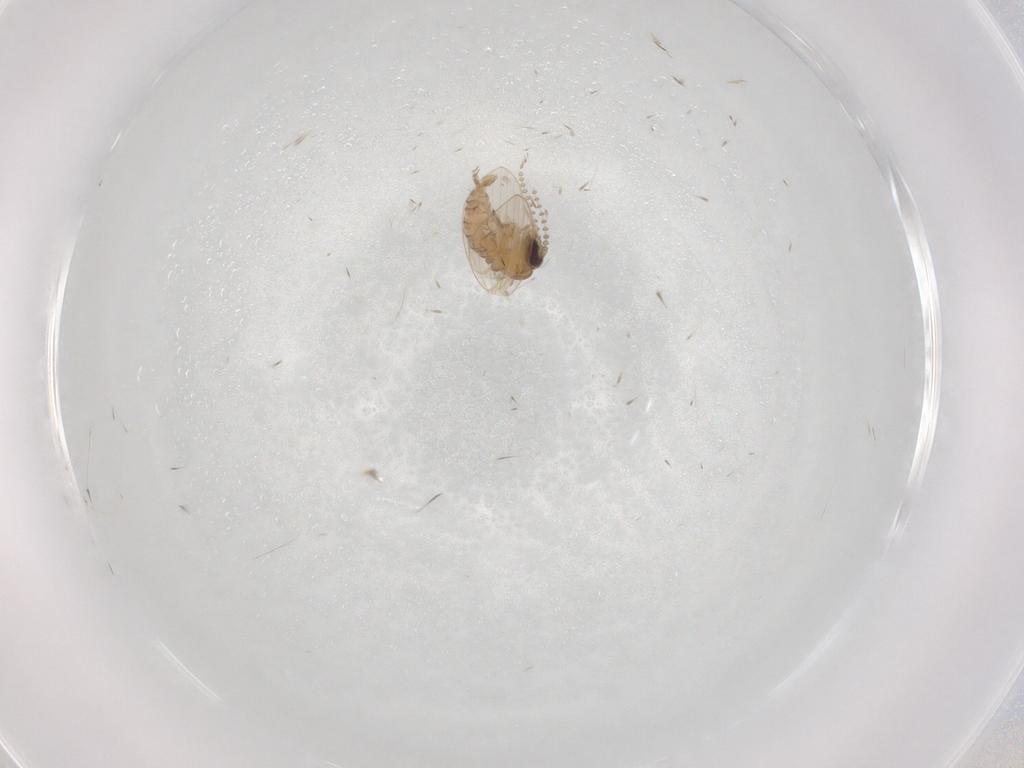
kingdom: Animalia
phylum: Arthropoda
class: Insecta
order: Diptera
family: Psychodidae
